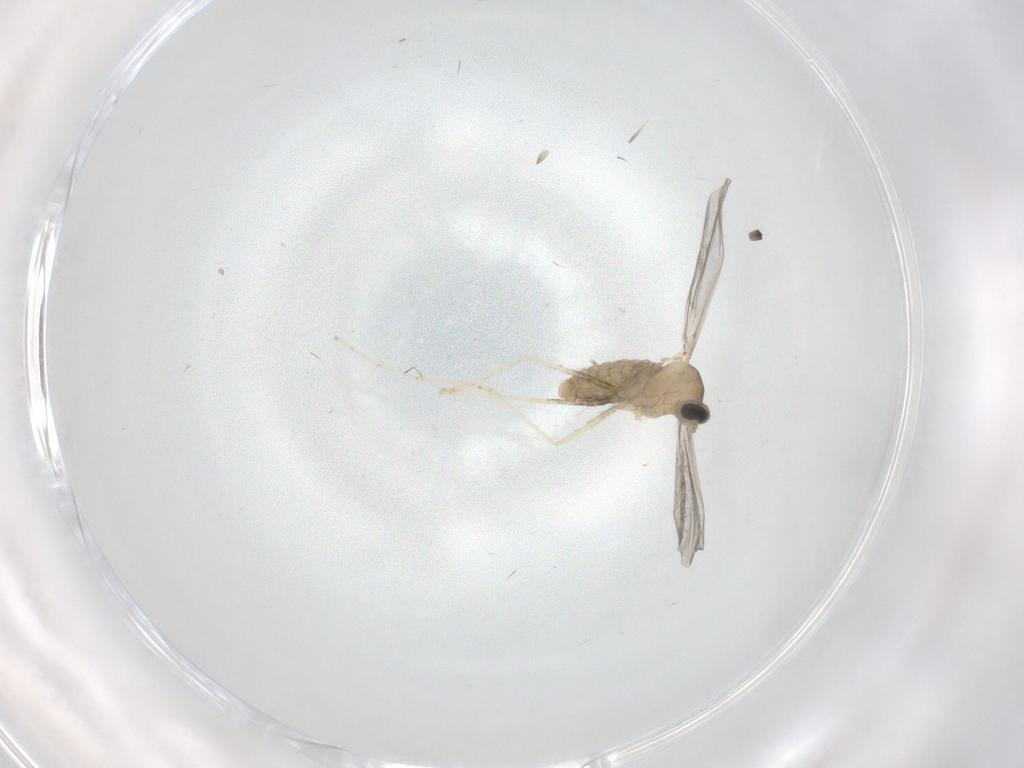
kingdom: Animalia
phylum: Arthropoda
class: Insecta
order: Diptera
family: Cecidomyiidae
